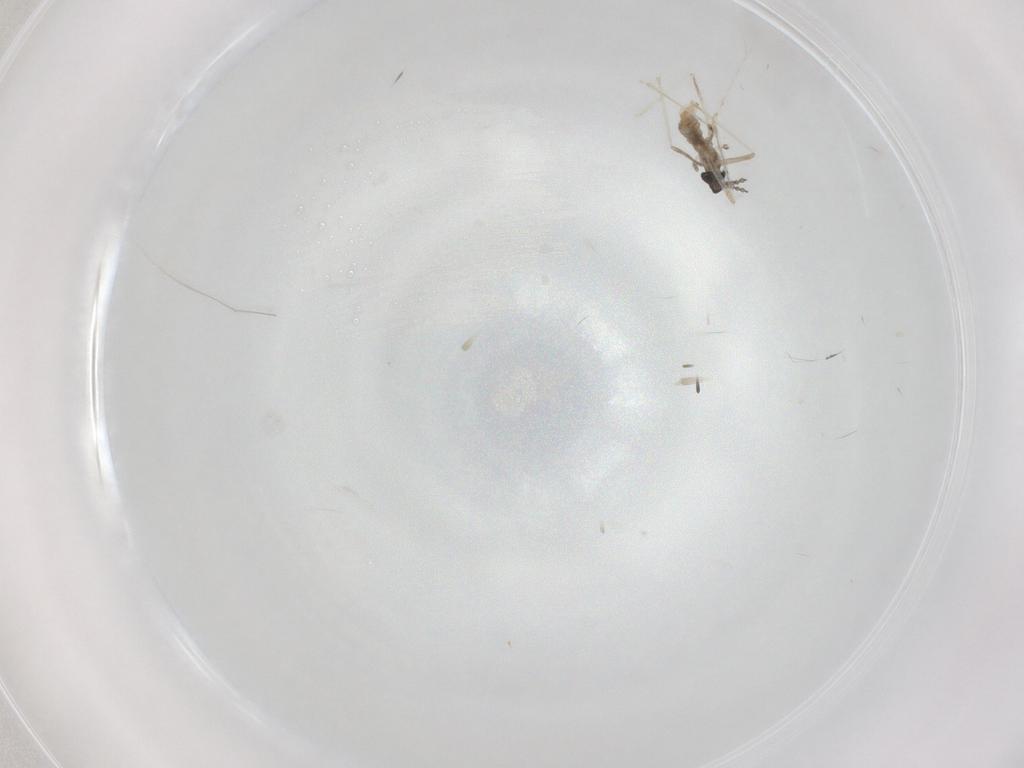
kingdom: Animalia
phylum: Arthropoda
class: Insecta
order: Diptera
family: Cecidomyiidae
